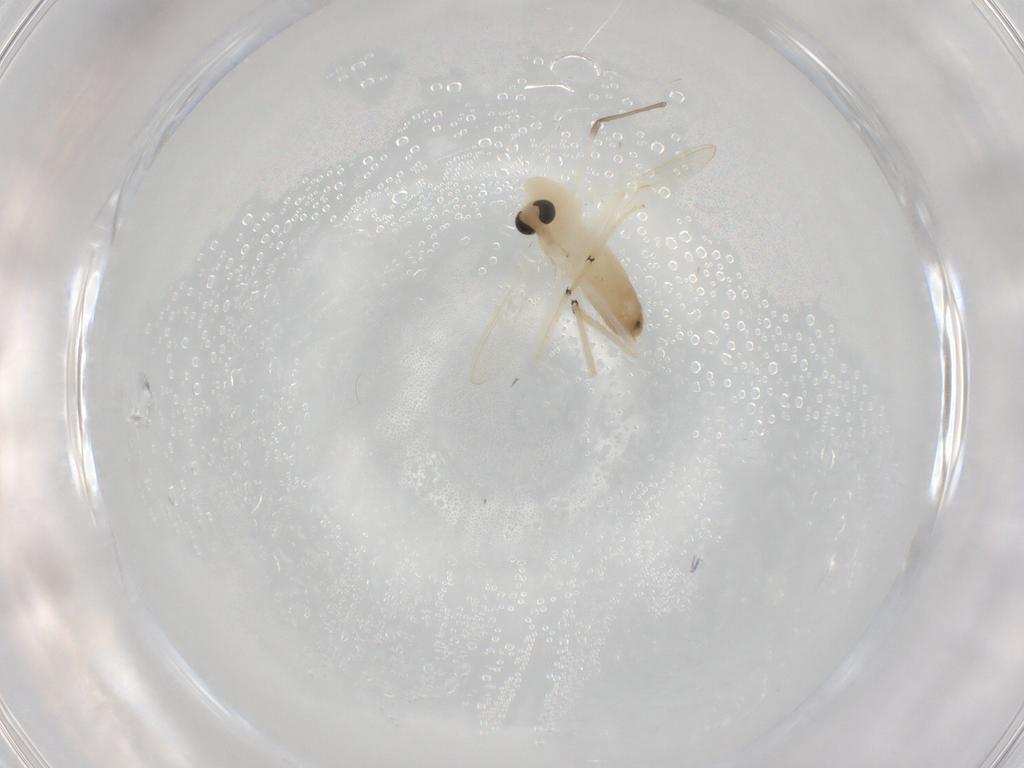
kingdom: Animalia
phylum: Arthropoda
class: Insecta
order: Diptera
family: Chironomidae
